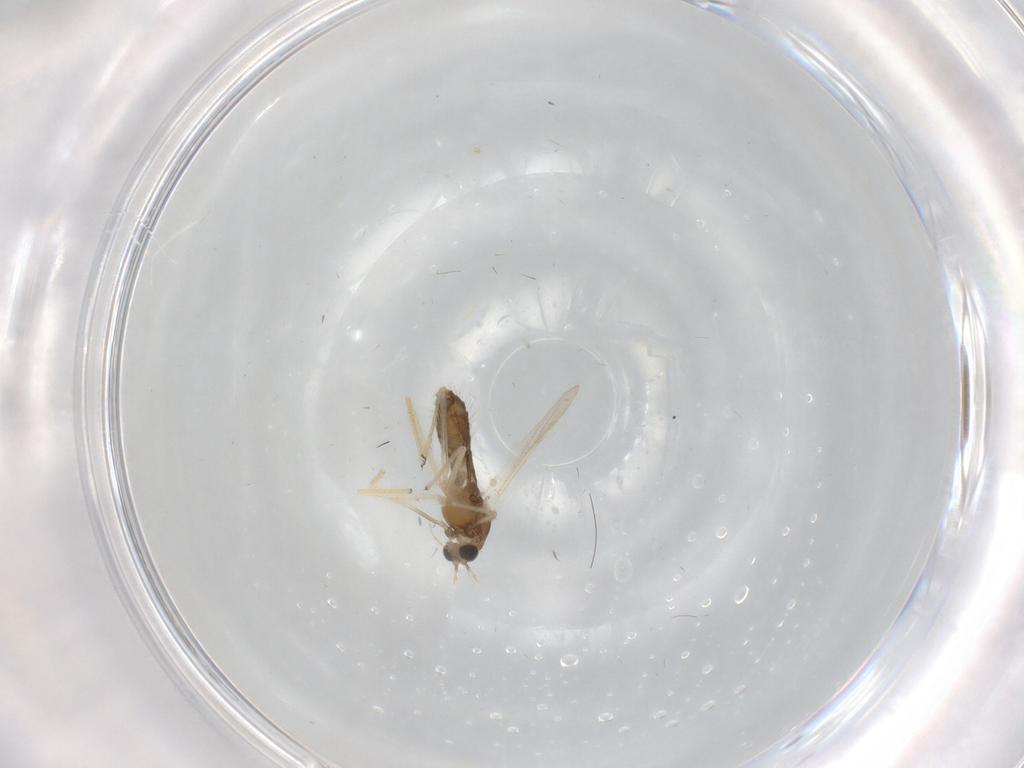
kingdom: Animalia
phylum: Arthropoda
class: Insecta
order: Diptera
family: Chironomidae
